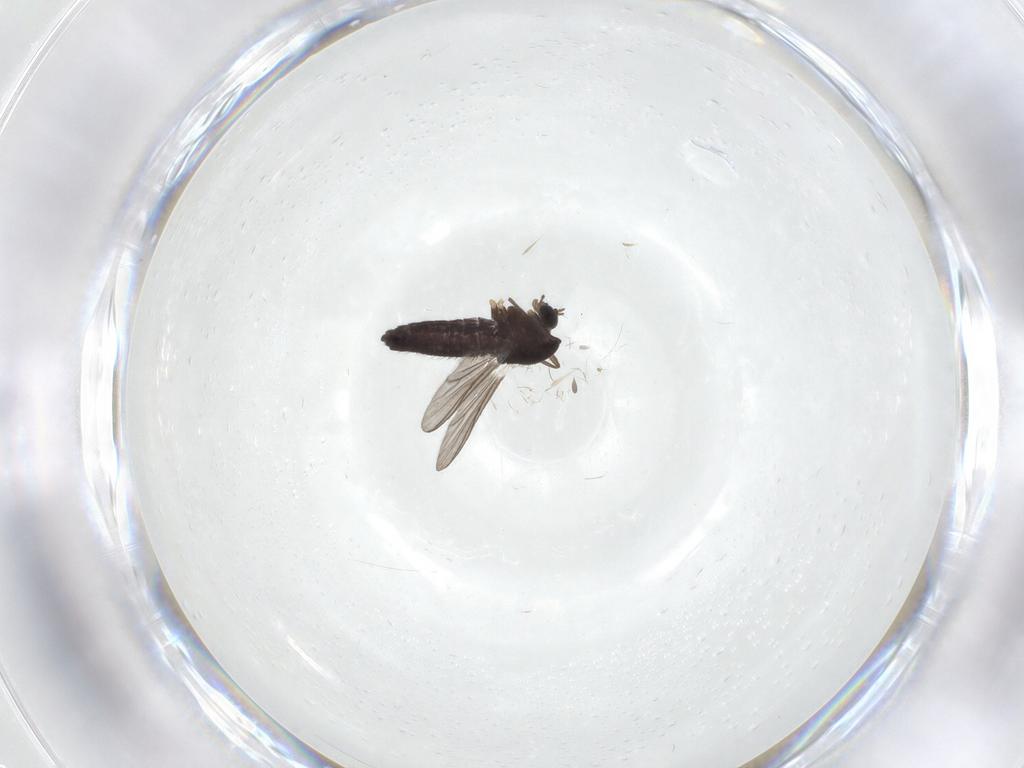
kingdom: Animalia
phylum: Arthropoda
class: Insecta
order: Diptera
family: Chironomidae
